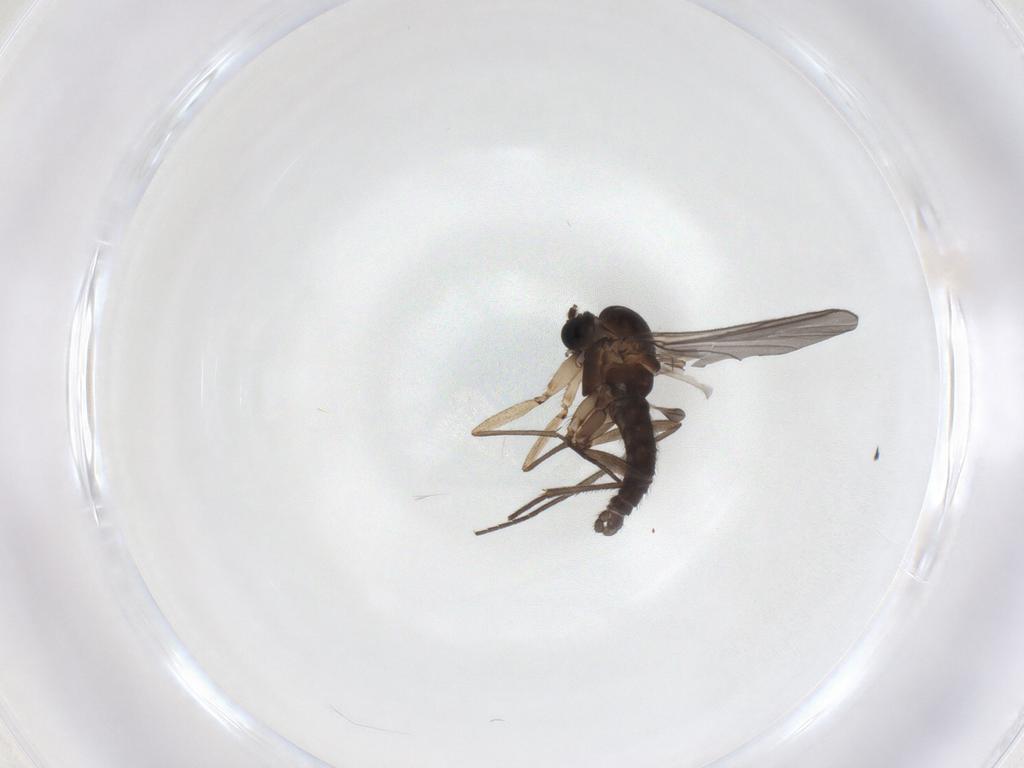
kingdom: Animalia
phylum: Arthropoda
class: Insecta
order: Diptera
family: Sciaridae
